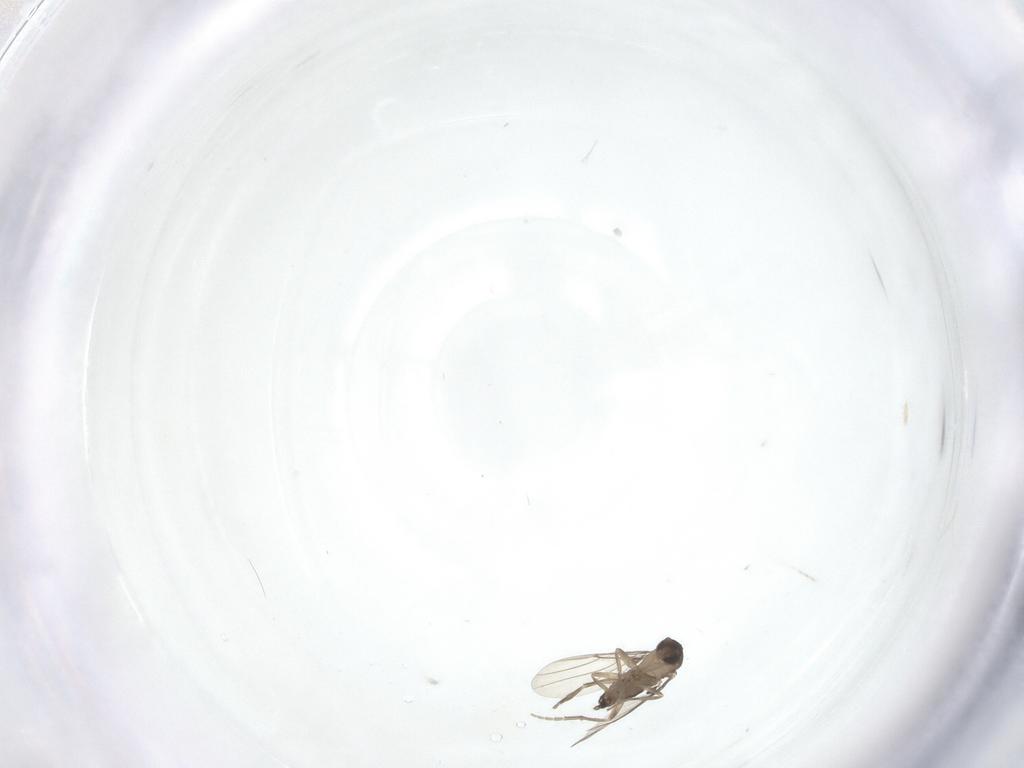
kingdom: Animalia
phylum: Arthropoda
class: Insecta
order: Diptera
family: Phoridae
